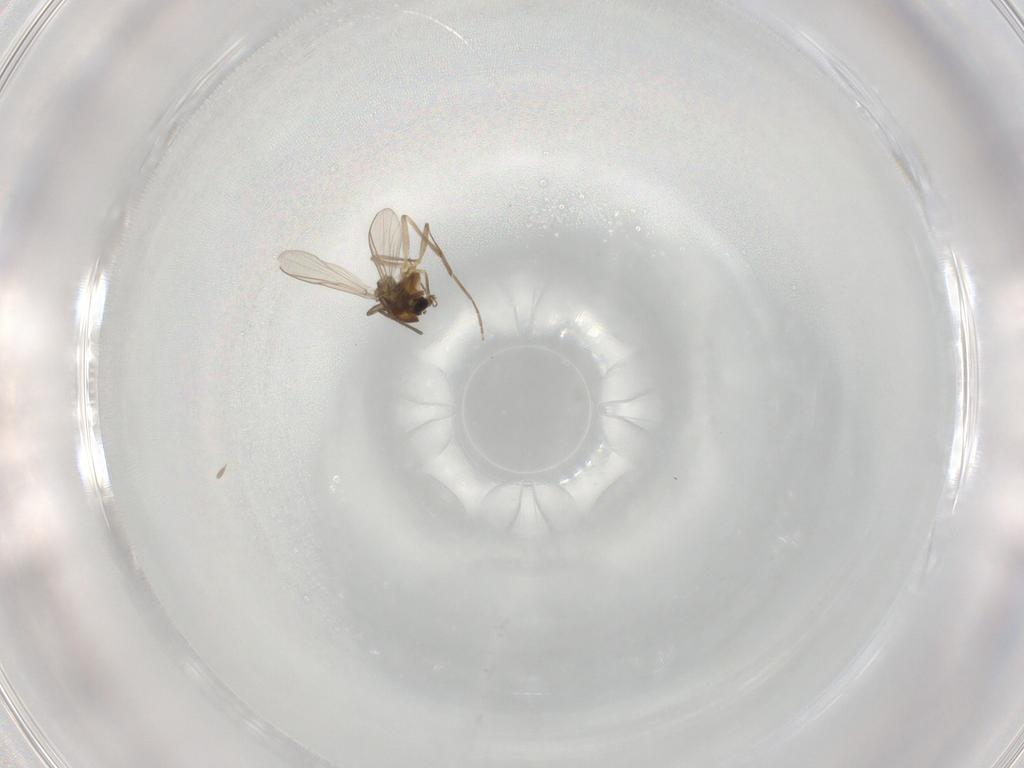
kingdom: Animalia
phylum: Arthropoda
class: Insecta
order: Diptera
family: Chironomidae
